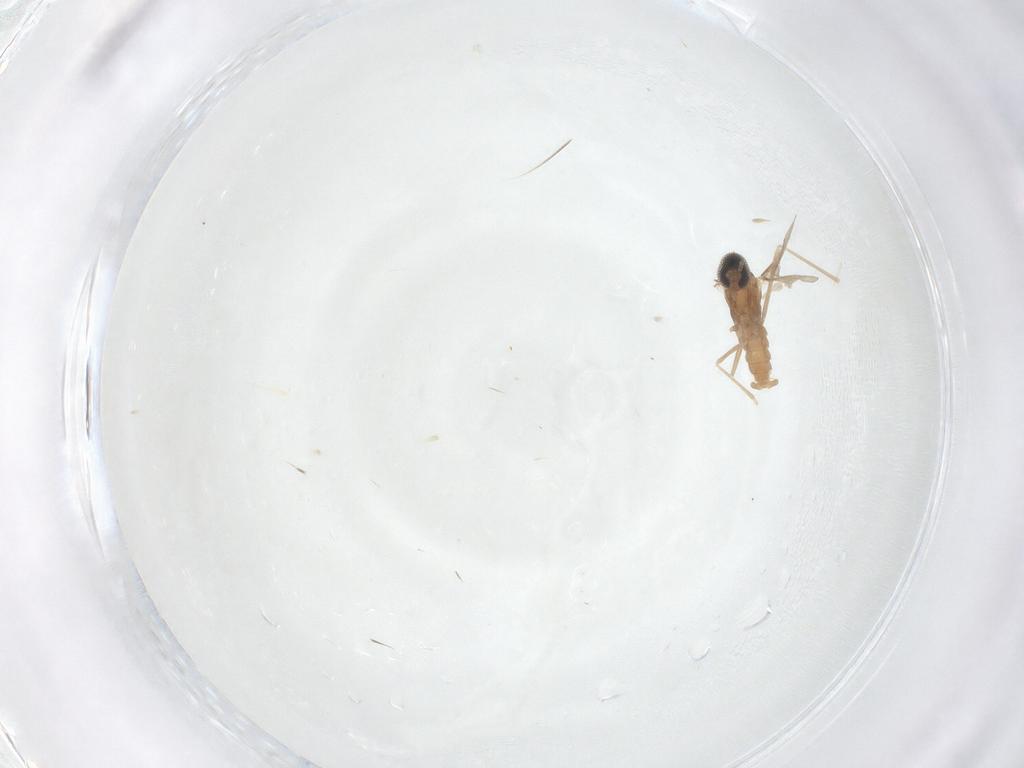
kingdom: Animalia
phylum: Arthropoda
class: Insecta
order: Diptera
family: Cecidomyiidae
